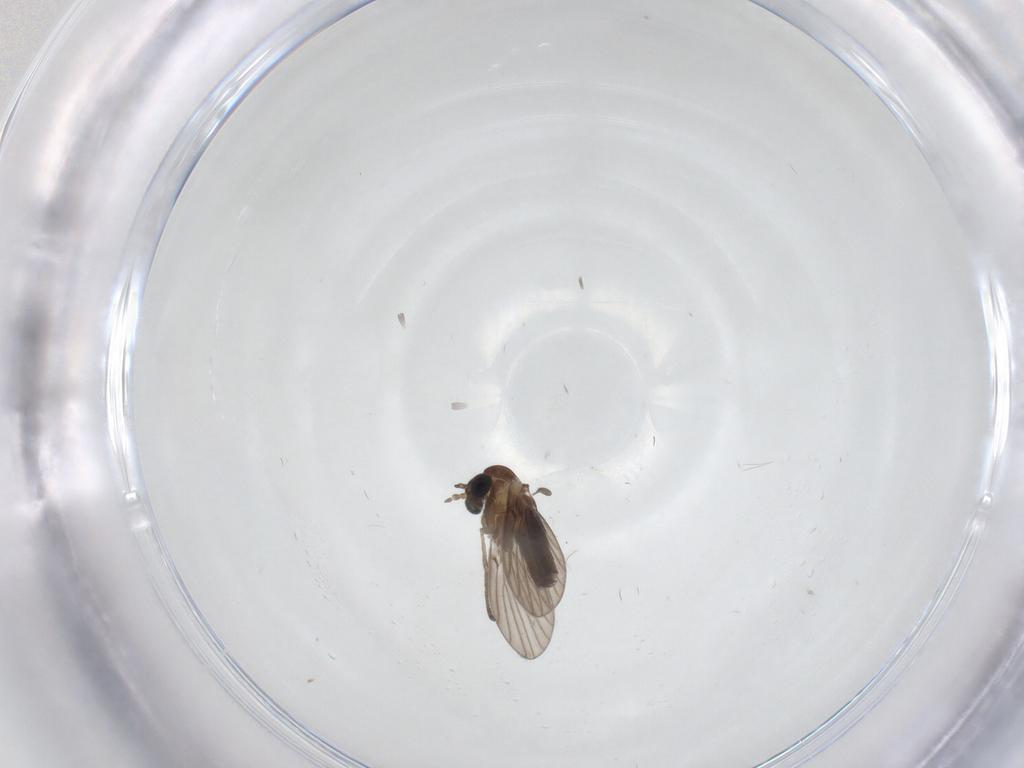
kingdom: Animalia
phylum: Arthropoda
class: Insecta
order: Diptera
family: Psychodidae
